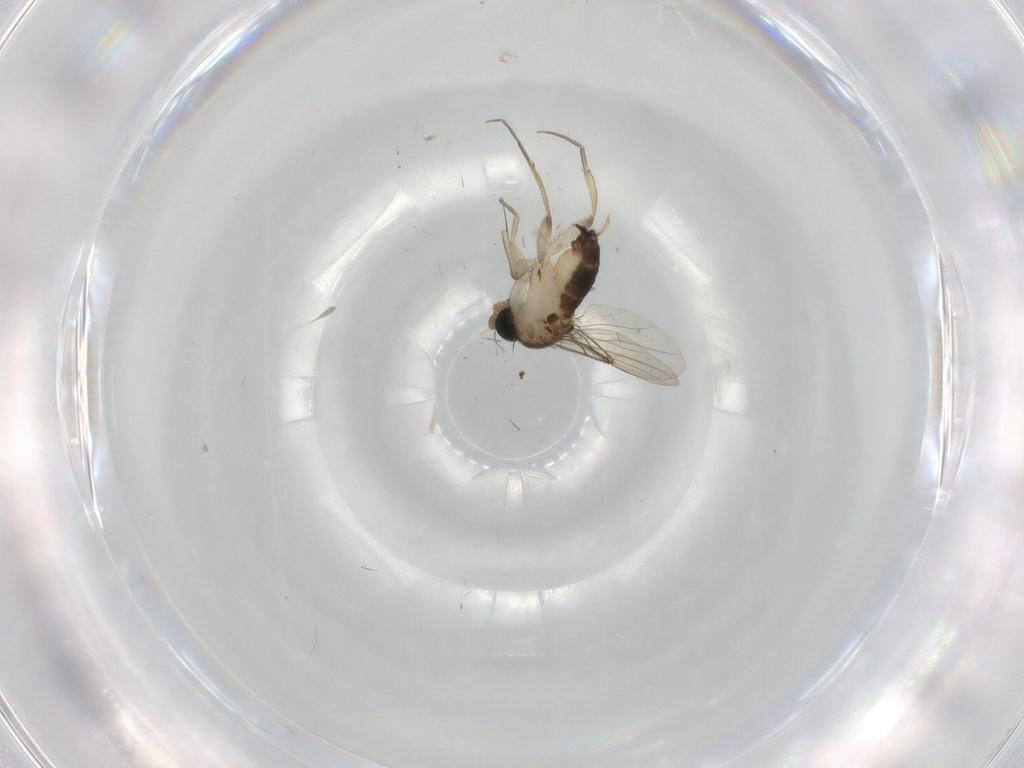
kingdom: Animalia
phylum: Arthropoda
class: Insecta
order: Diptera
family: Phoridae
